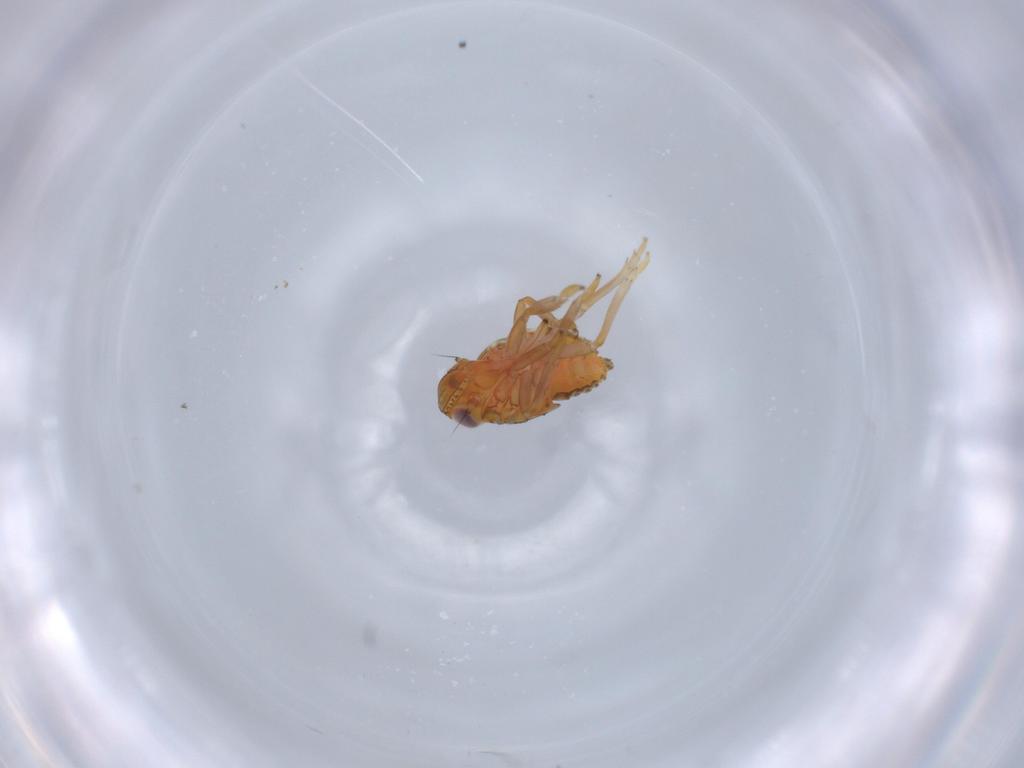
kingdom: Animalia
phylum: Arthropoda
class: Insecta
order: Hemiptera
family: Issidae
